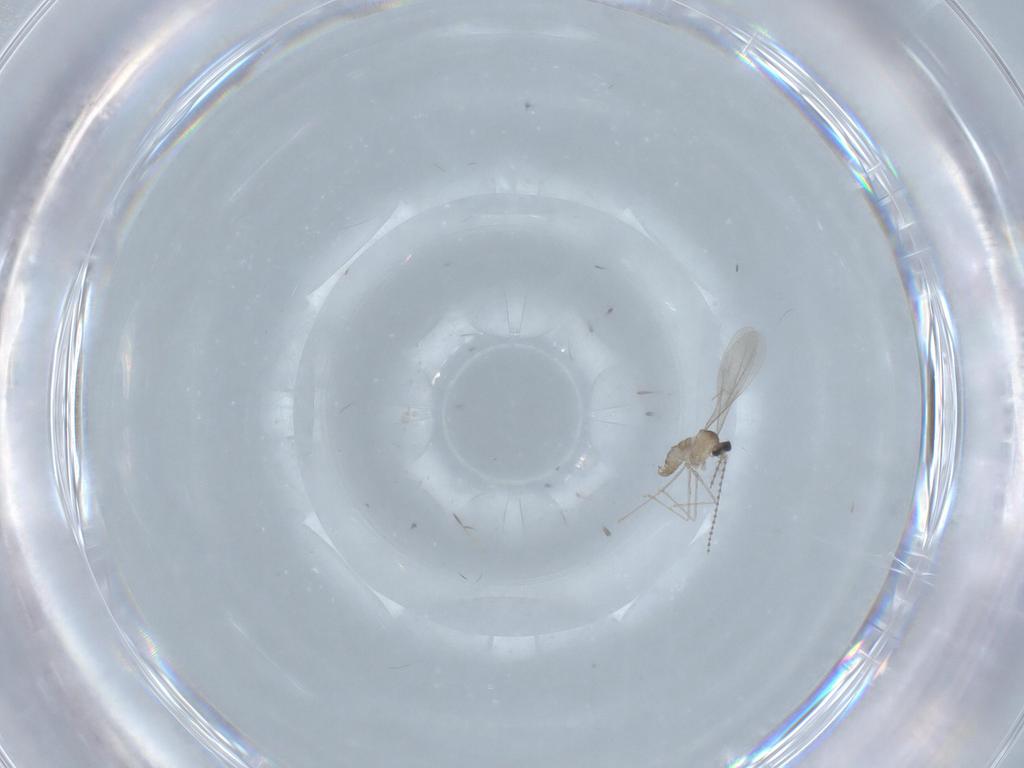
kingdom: Animalia
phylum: Arthropoda
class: Insecta
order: Diptera
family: Cecidomyiidae
